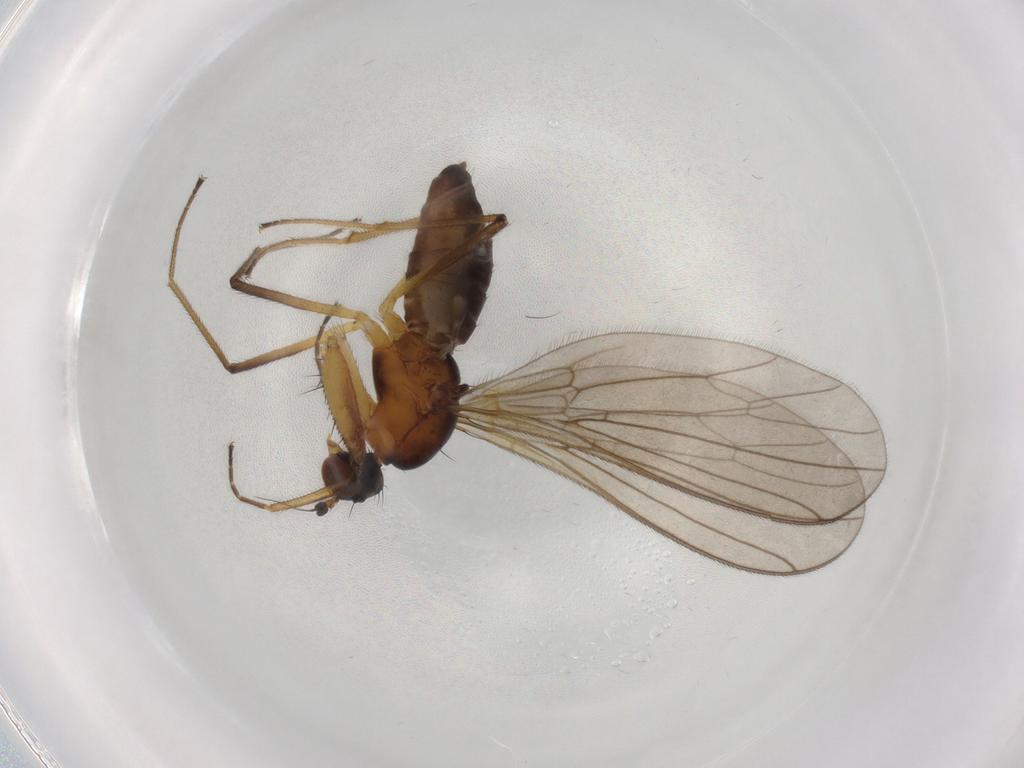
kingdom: Animalia
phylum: Arthropoda
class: Insecta
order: Diptera
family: Empididae
